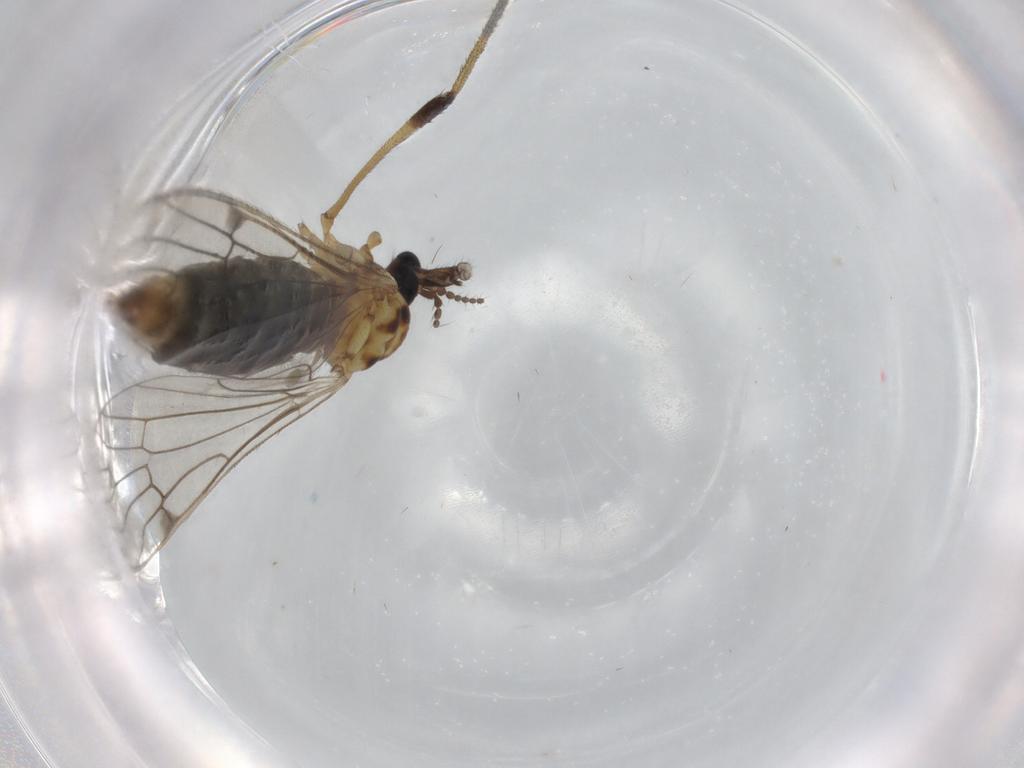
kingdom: Animalia
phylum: Arthropoda
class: Insecta
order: Diptera
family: Limoniidae
